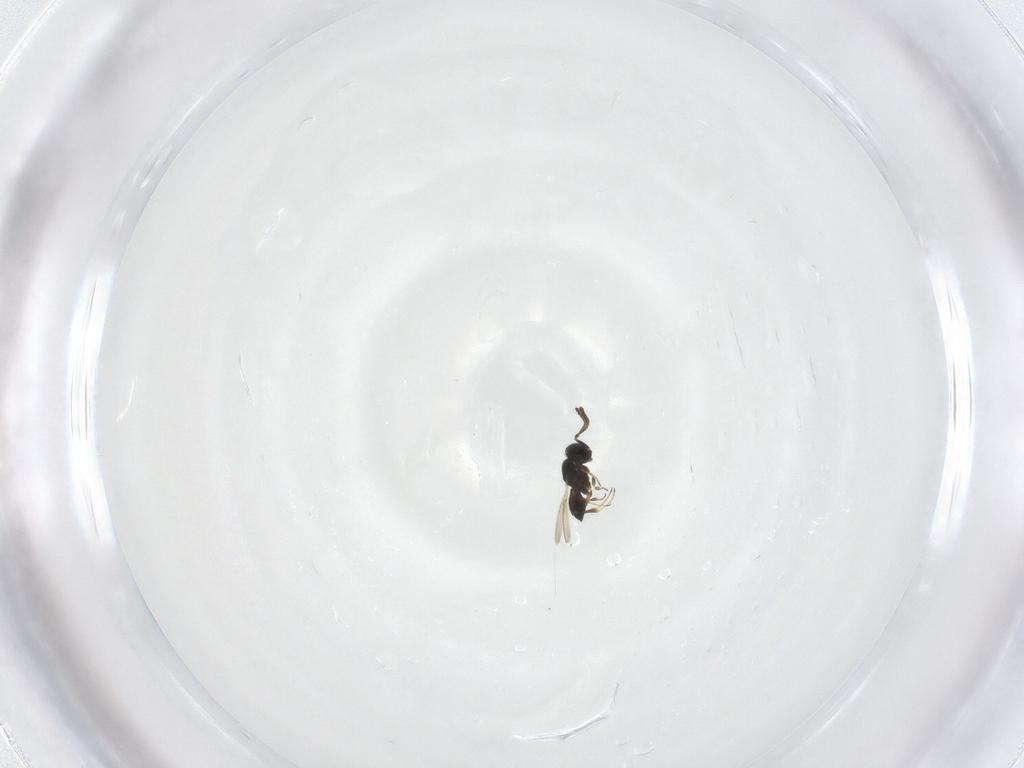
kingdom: Animalia
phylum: Arthropoda
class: Insecta
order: Hymenoptera
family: Scelionidae
